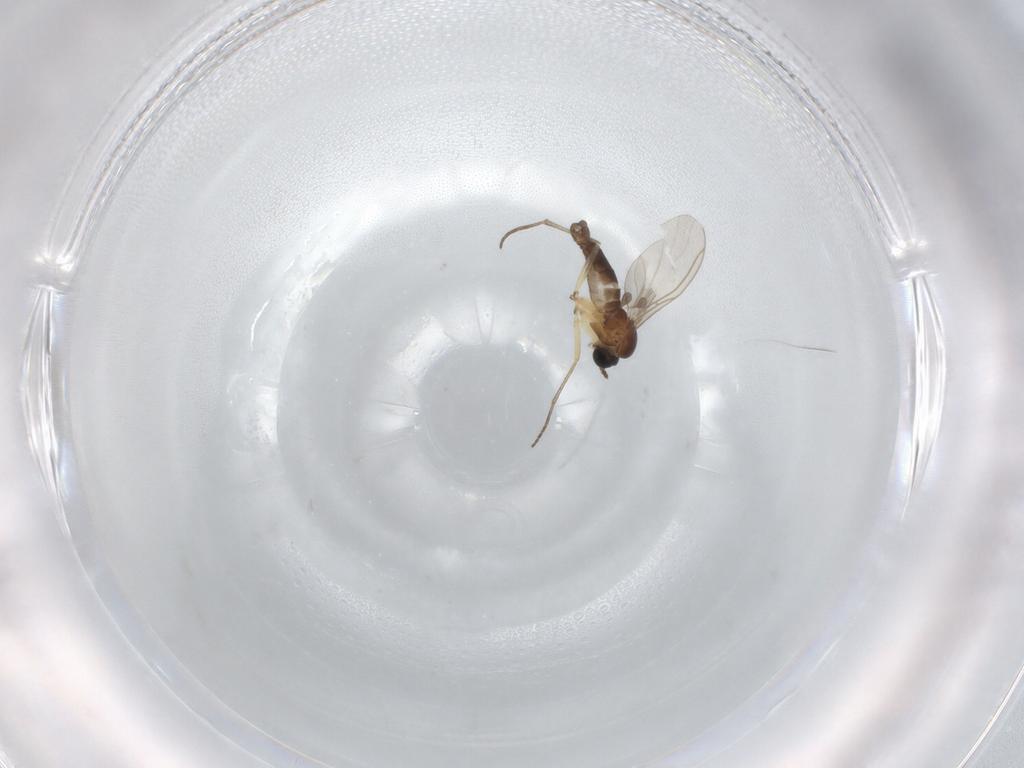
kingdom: Animalia
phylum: Arthropoda
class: Insecta
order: Diptera
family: Sciaridae
